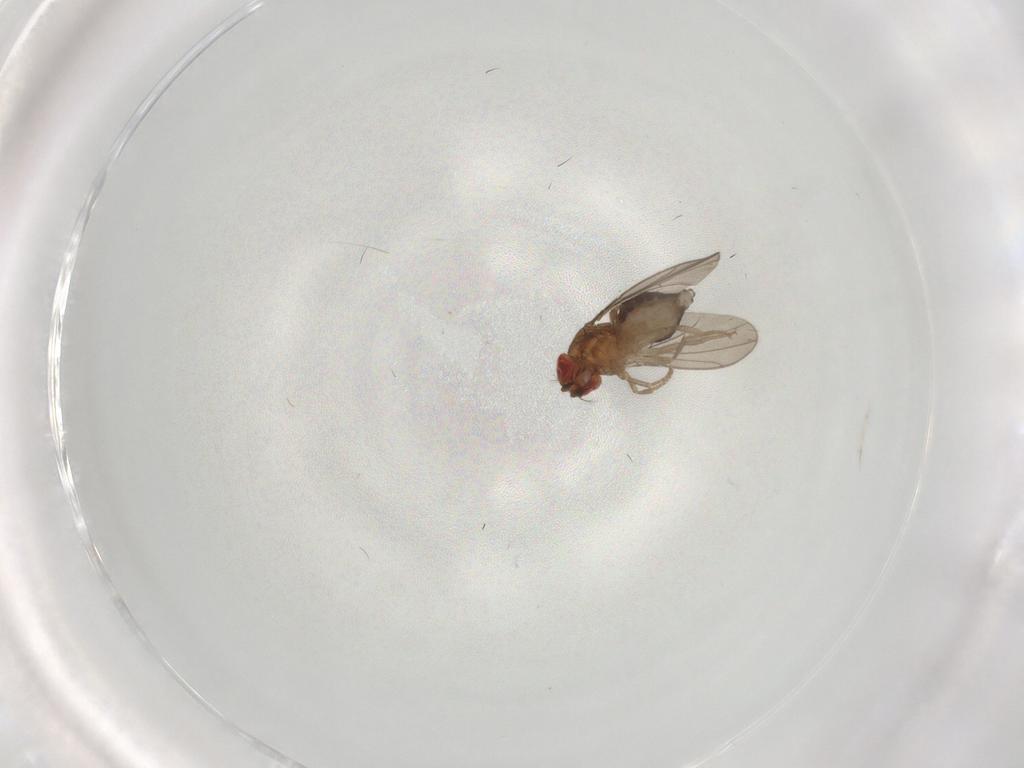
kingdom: Animalia
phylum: Arthropoda
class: Insecta
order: Diptera
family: Drosophilidae
